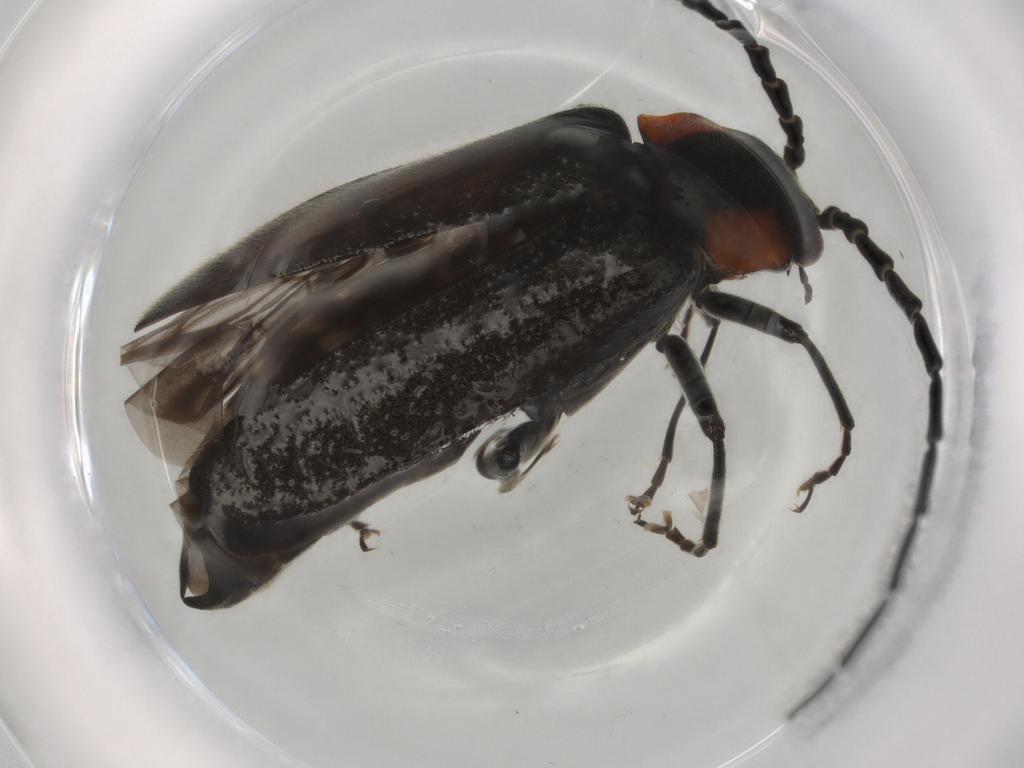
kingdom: Animalia
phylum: Arthropoda
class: Insecta
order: Coleoptera
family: Cantharidae
